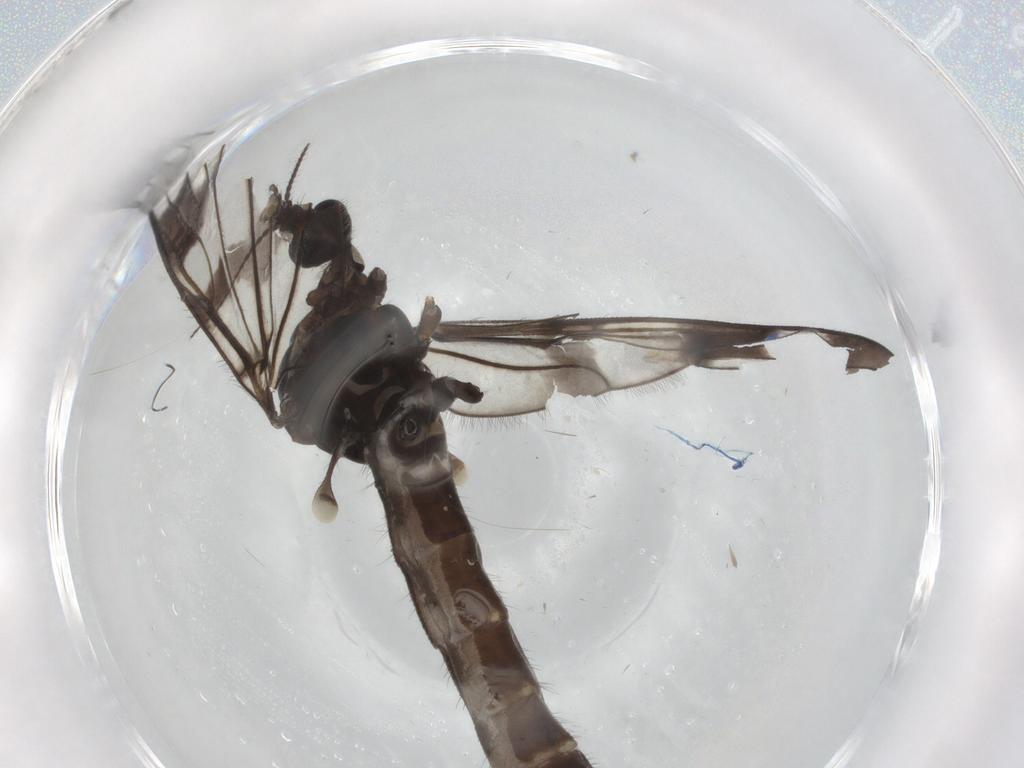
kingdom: Animalia
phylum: Arthropoda
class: Insecta
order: Diptera
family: Limoniidae
